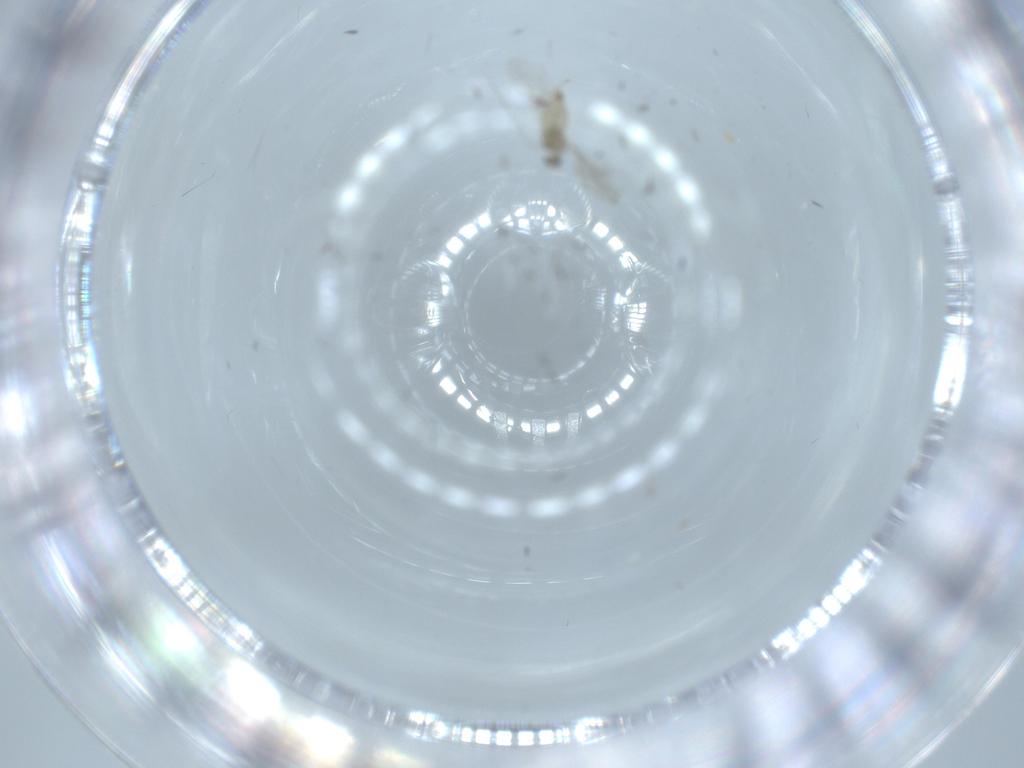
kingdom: Animalia
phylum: Arthropoda
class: Insecta
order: Diptera
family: Cecidomyiidae
